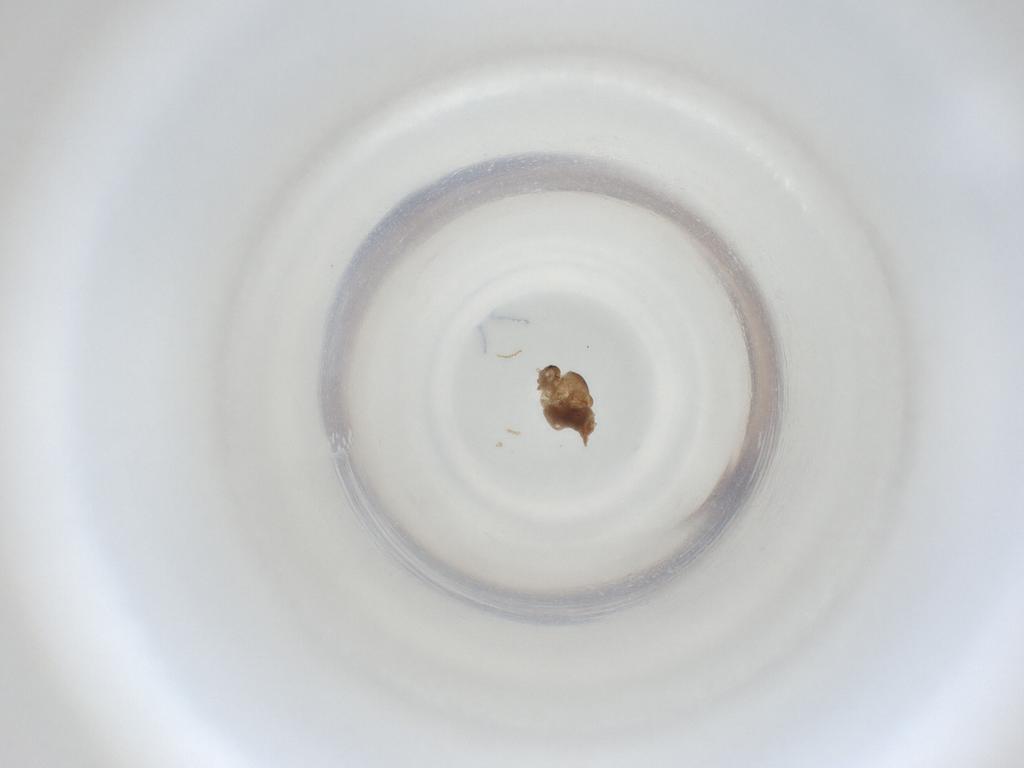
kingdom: Animalia
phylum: Arthropoda
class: Insecta
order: Diptera
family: Cecidomyiidae
